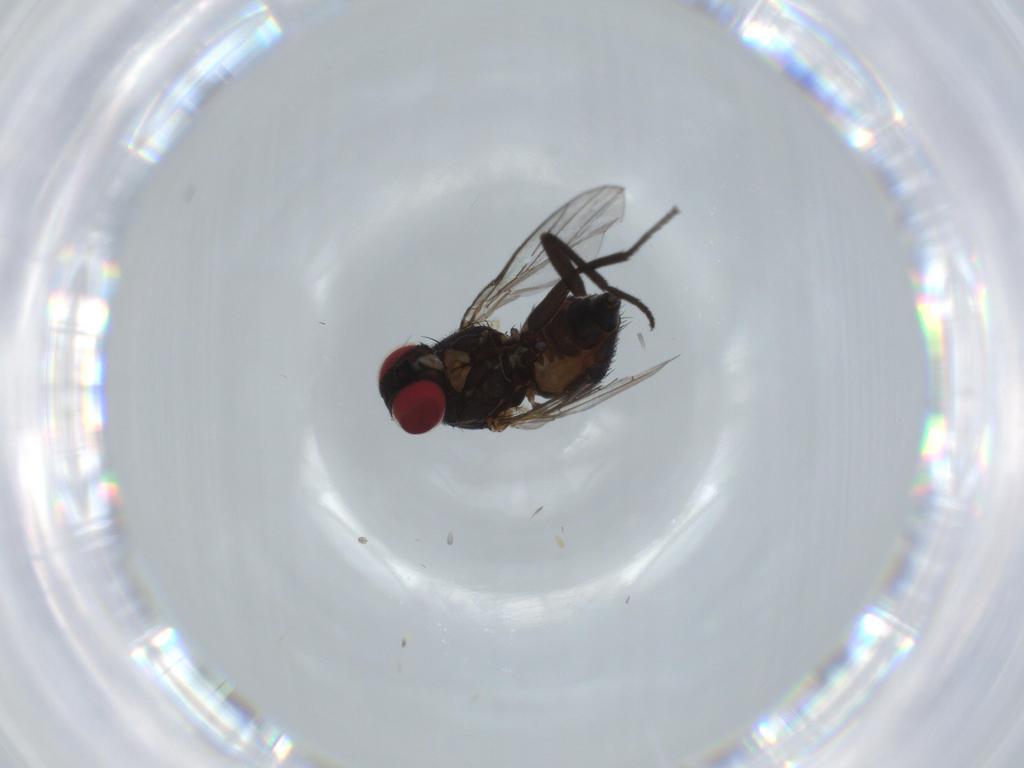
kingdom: Animalia
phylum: Arthropoda
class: Insecta
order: Diptera
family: Agromyzidae
